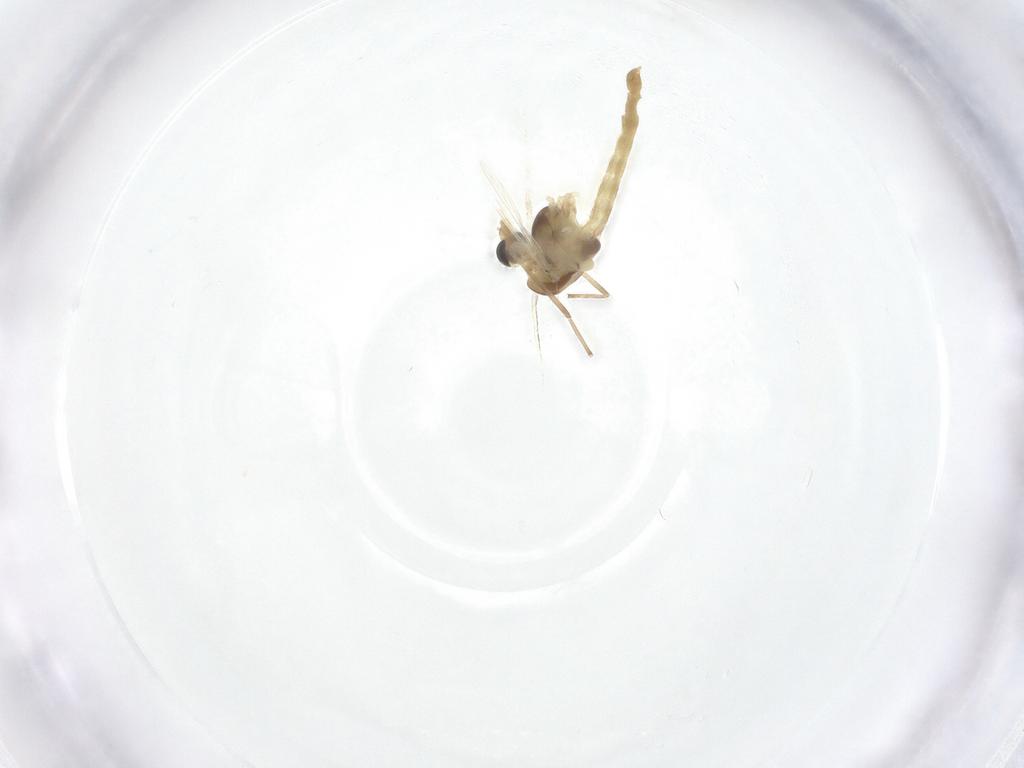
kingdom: Animalia
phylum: Arthropoda
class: Insecta
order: Diptera
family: Chironomidae
